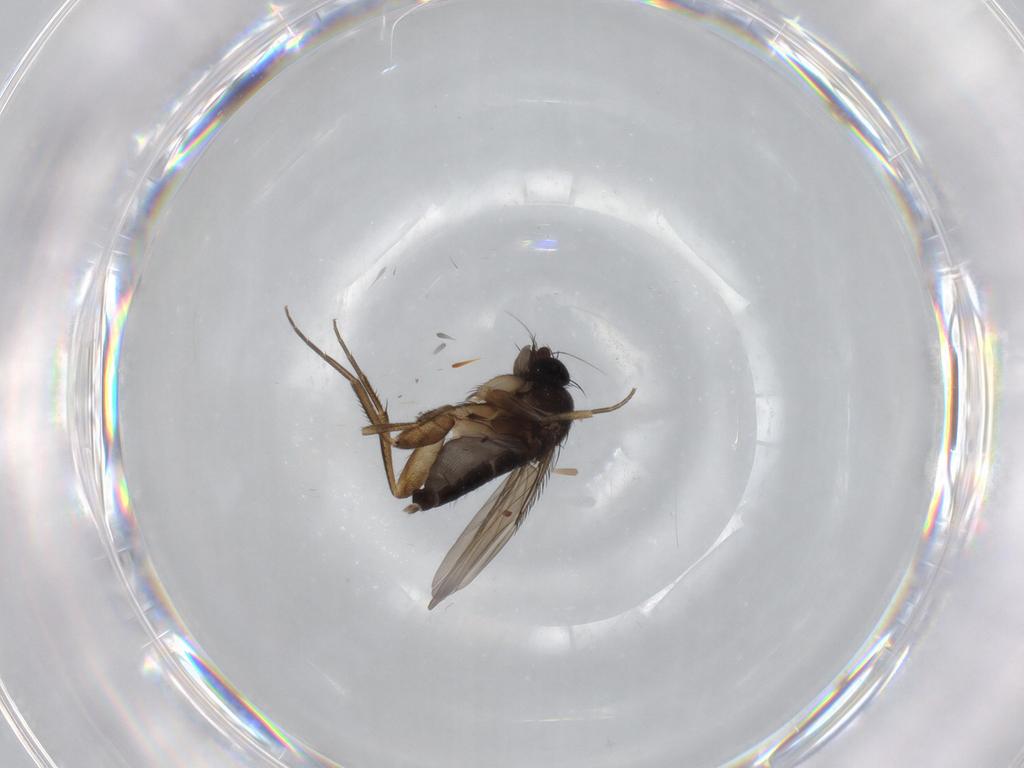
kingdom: Animalia
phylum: Arthropoda
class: Insecta
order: Diptera
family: Phoridae
